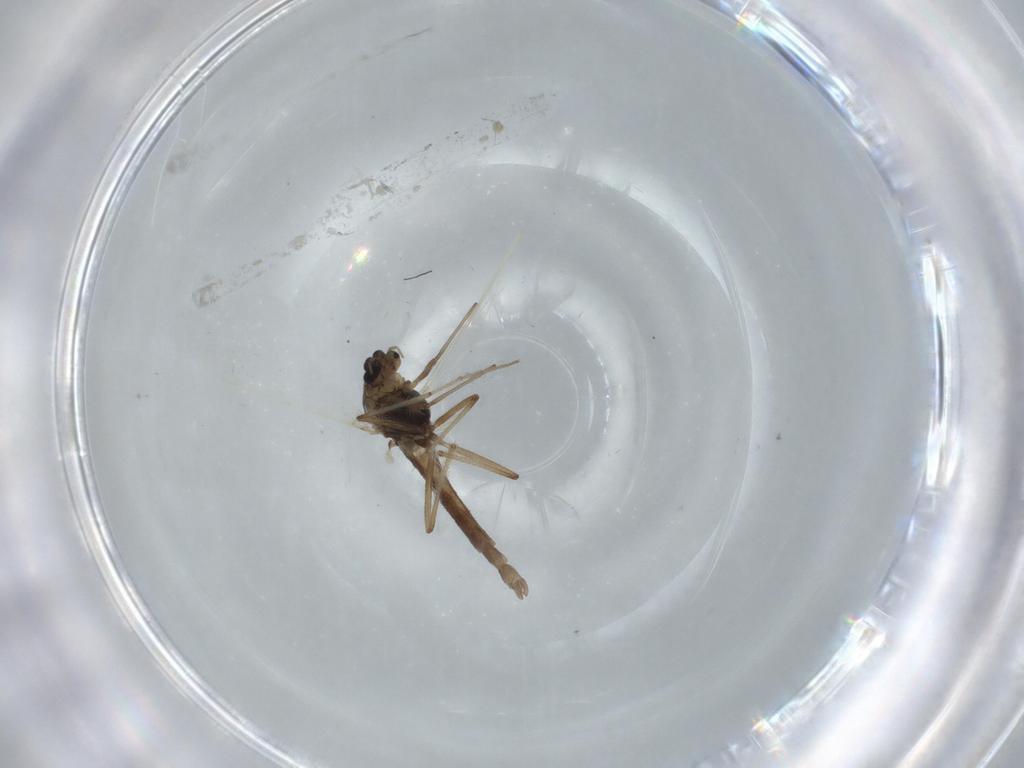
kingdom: Animalia
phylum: Arthropoda
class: Insecta
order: Diptera
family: Chironomidae
